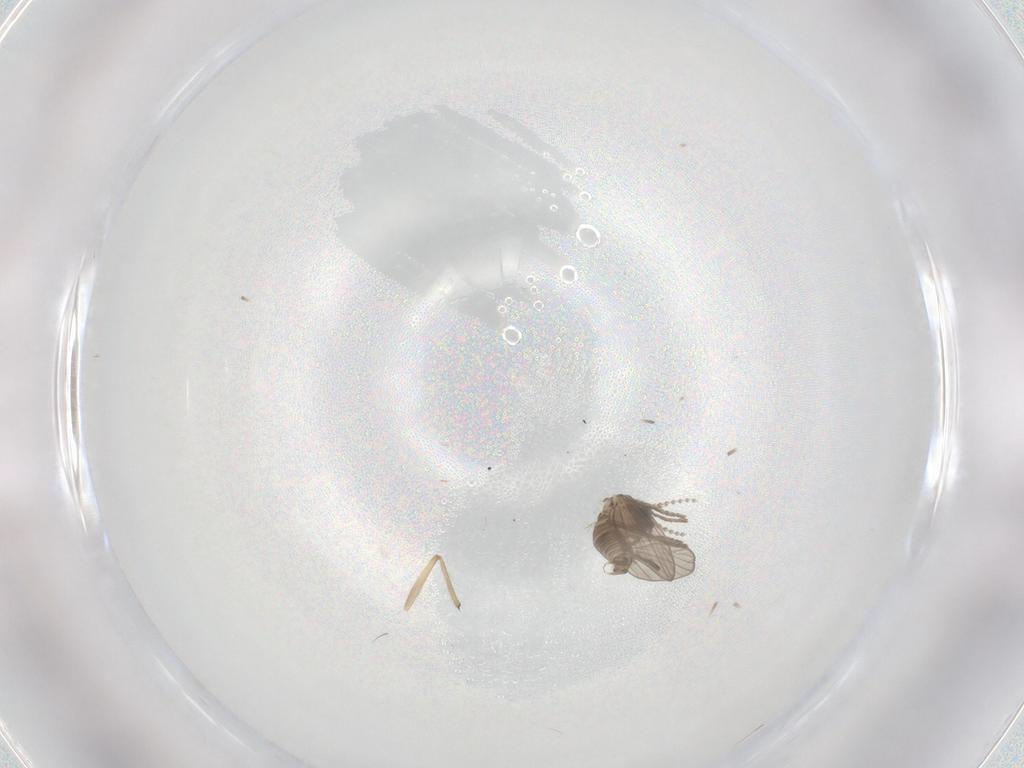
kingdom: Animalia
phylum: Arthropoda
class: Insecta
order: Diptera
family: Psychodidae
